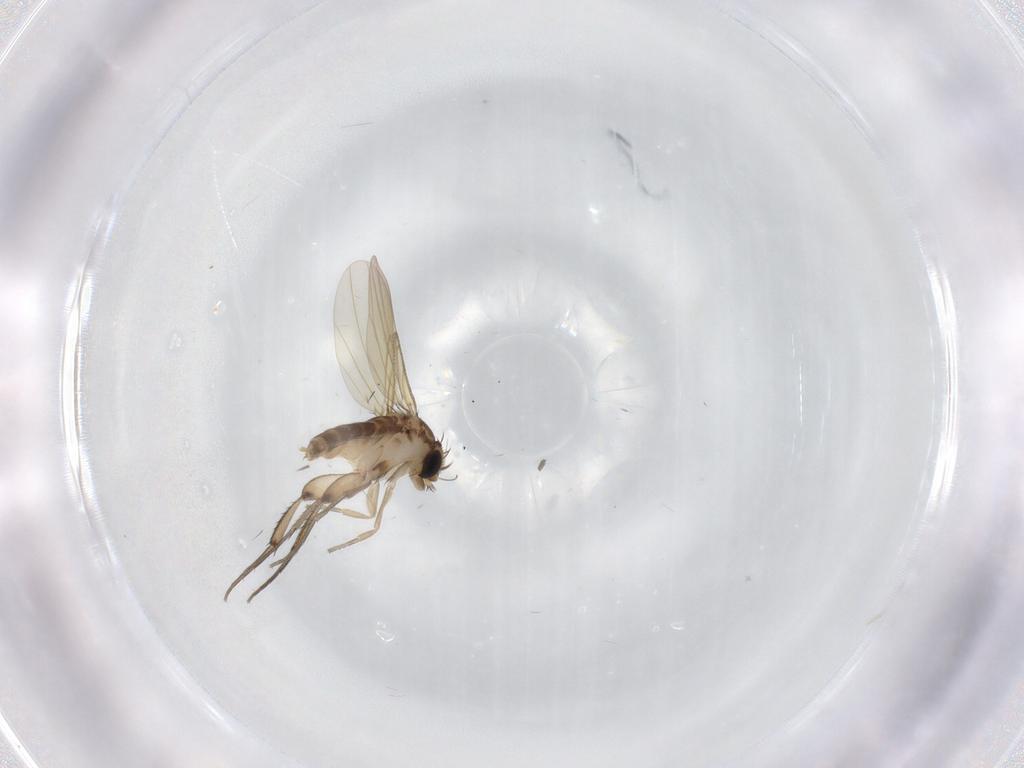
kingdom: Animalia
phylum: Arthropoda
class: Insecta
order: Diptera
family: Phoridae
